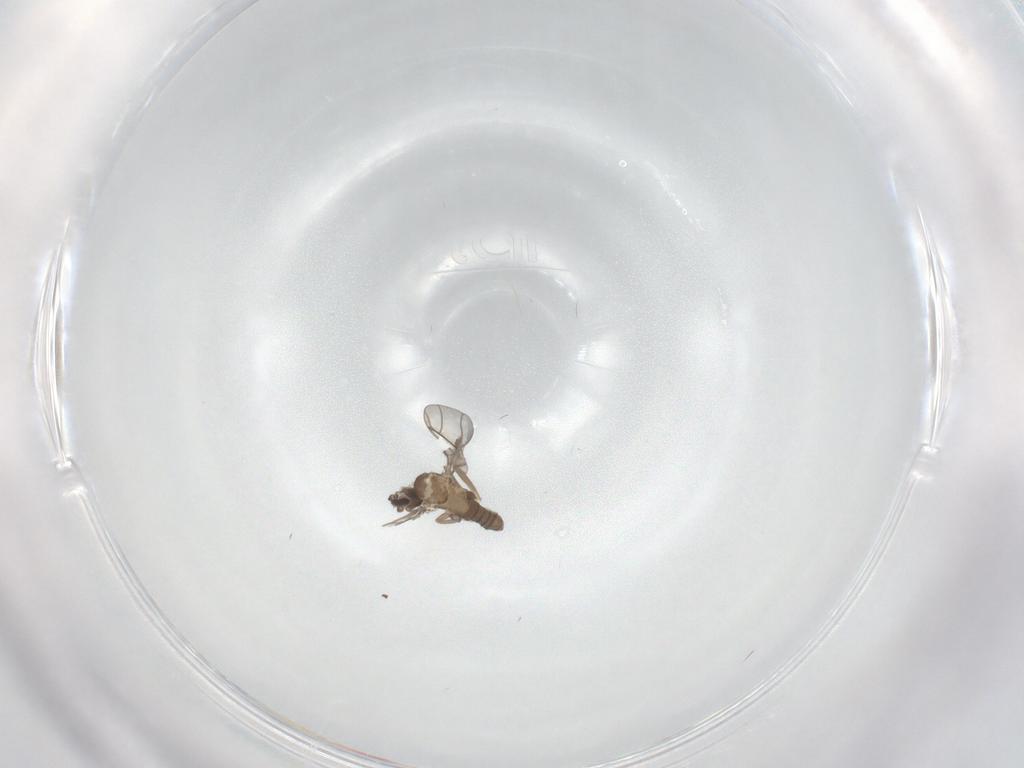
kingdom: Animalia
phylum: Arthropoda
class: Insecta
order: Diptera
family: Limoniidae
